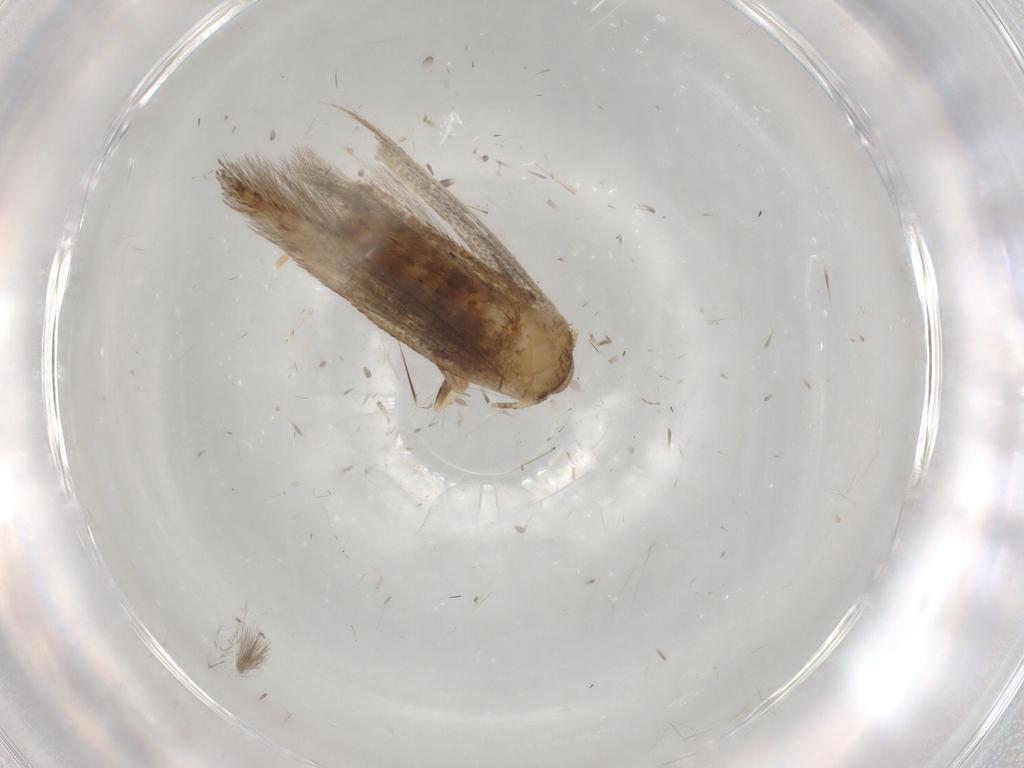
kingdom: Animalia
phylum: Arthropoda
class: Insecta
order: Lepidoptera
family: Cosmopterigidae
